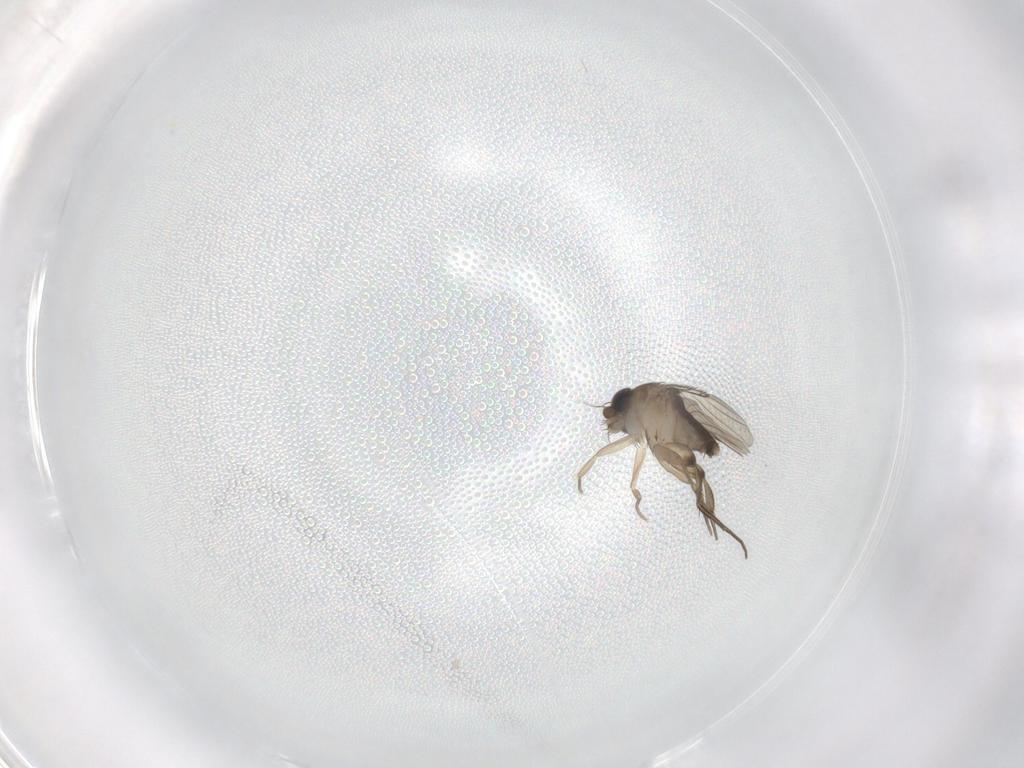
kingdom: Animalia
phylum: Arthropoda
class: Insecta
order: Diptera
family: Phoridae
